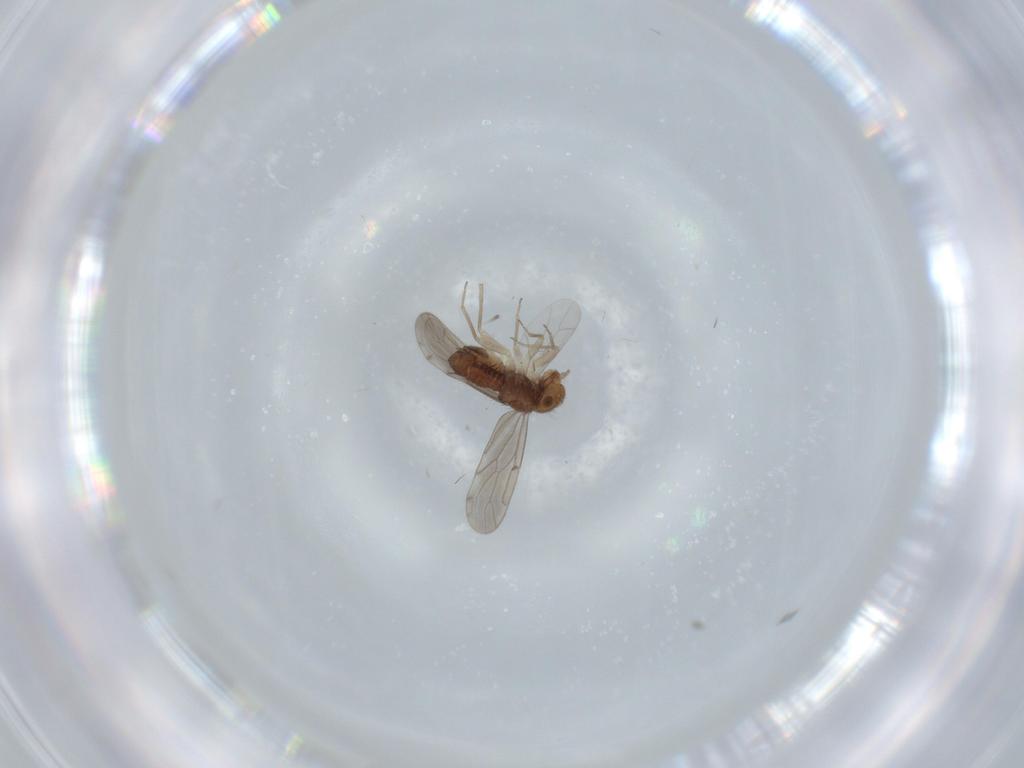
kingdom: Animalia
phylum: Arthropoda
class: Insecta
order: Psocodea
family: Ectopsocidae
